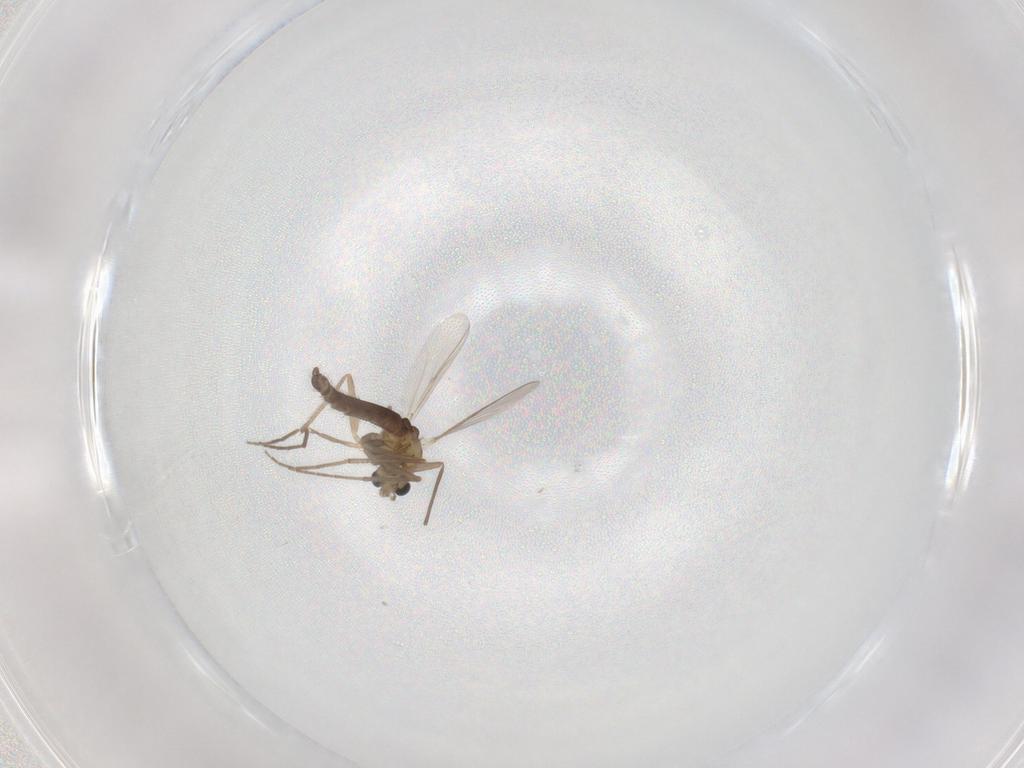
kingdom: Animalia
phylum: Arthropoda
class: Insecta
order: Diptera
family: Chironomidae
